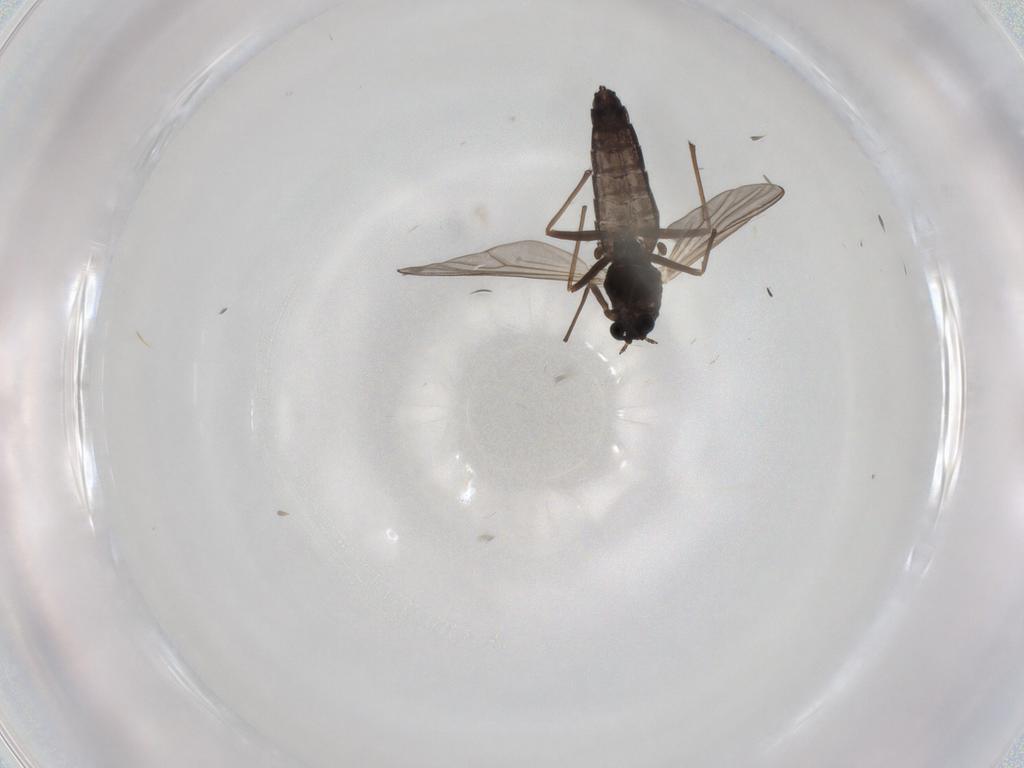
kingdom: Animalia
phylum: Arthropoda
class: Insecta
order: Diptera
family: Chironomidae
